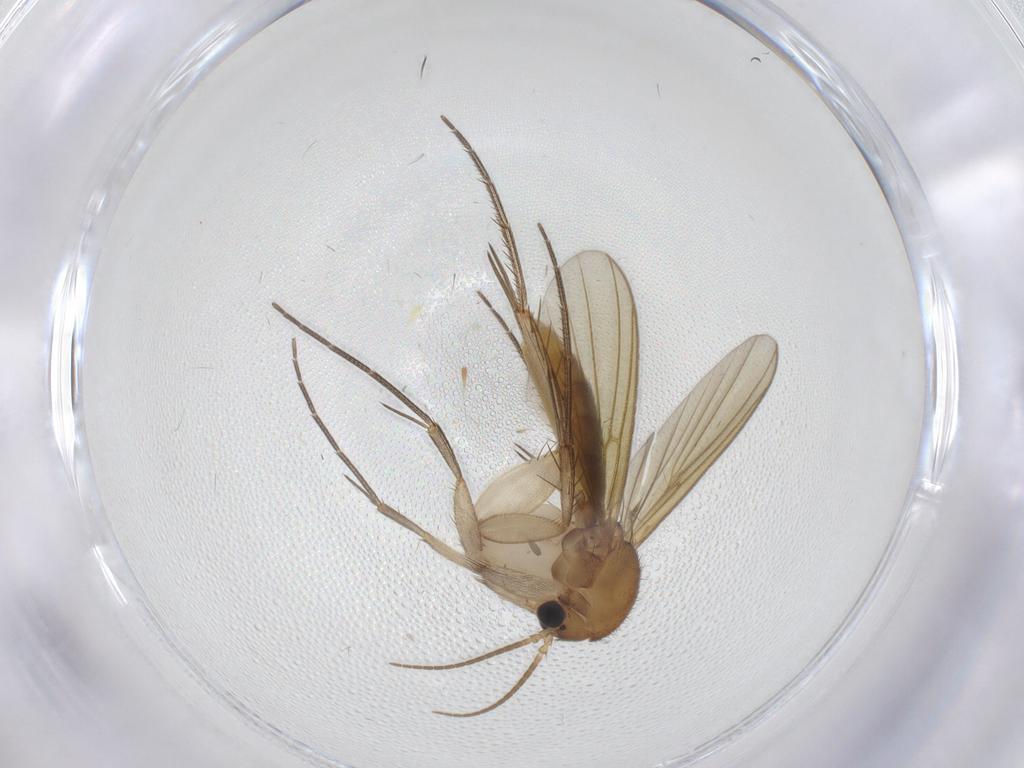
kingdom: Animalia
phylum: Arthropoda
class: Insecta
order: Diptera
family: Mycetophilidae
